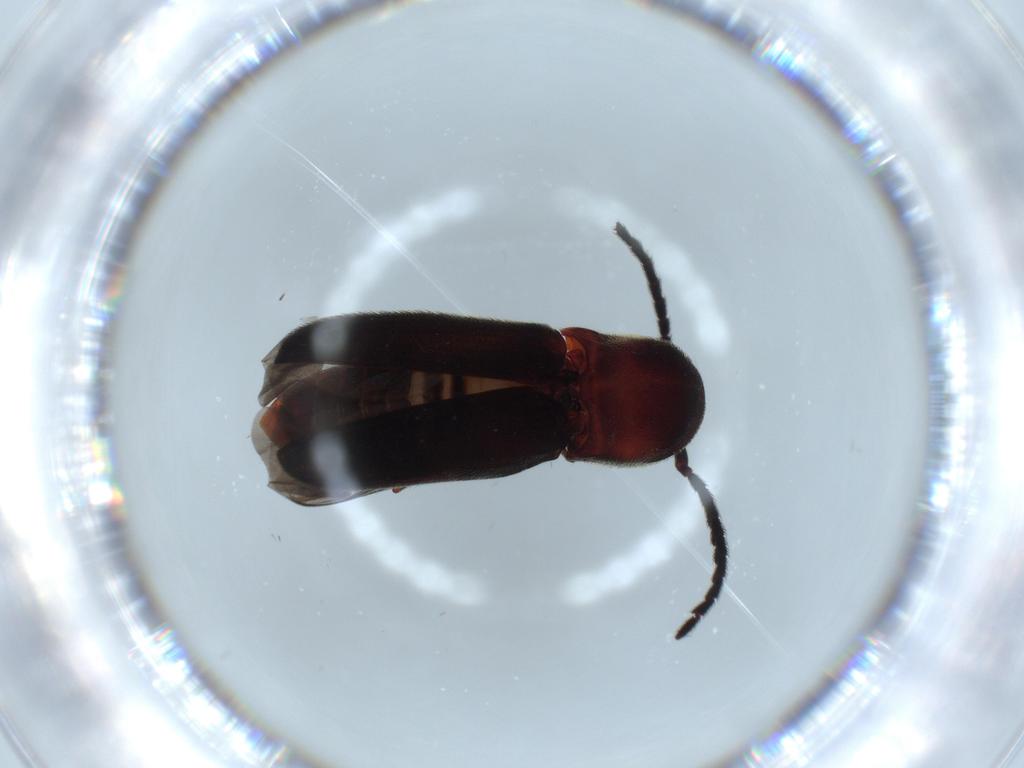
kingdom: Animalia
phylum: Arthropoda
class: Insecta
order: Coleoptera
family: Eucnemidae
